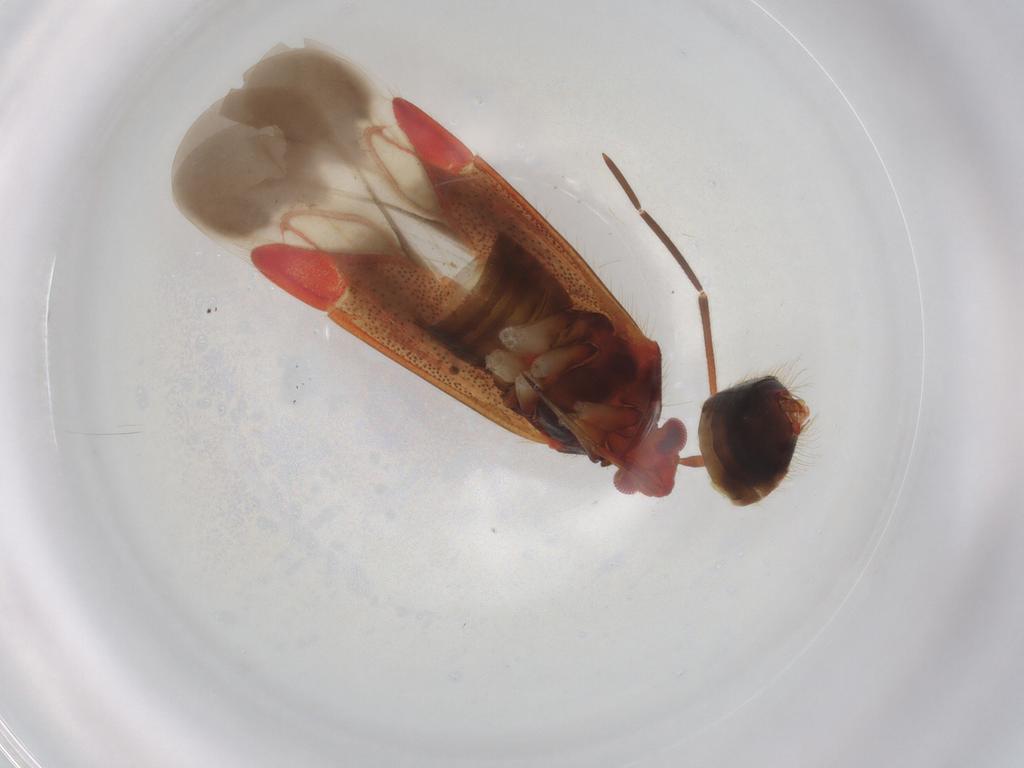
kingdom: Animalia
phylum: Arthropoda
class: Insecta
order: Hemiptera
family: Miridae
